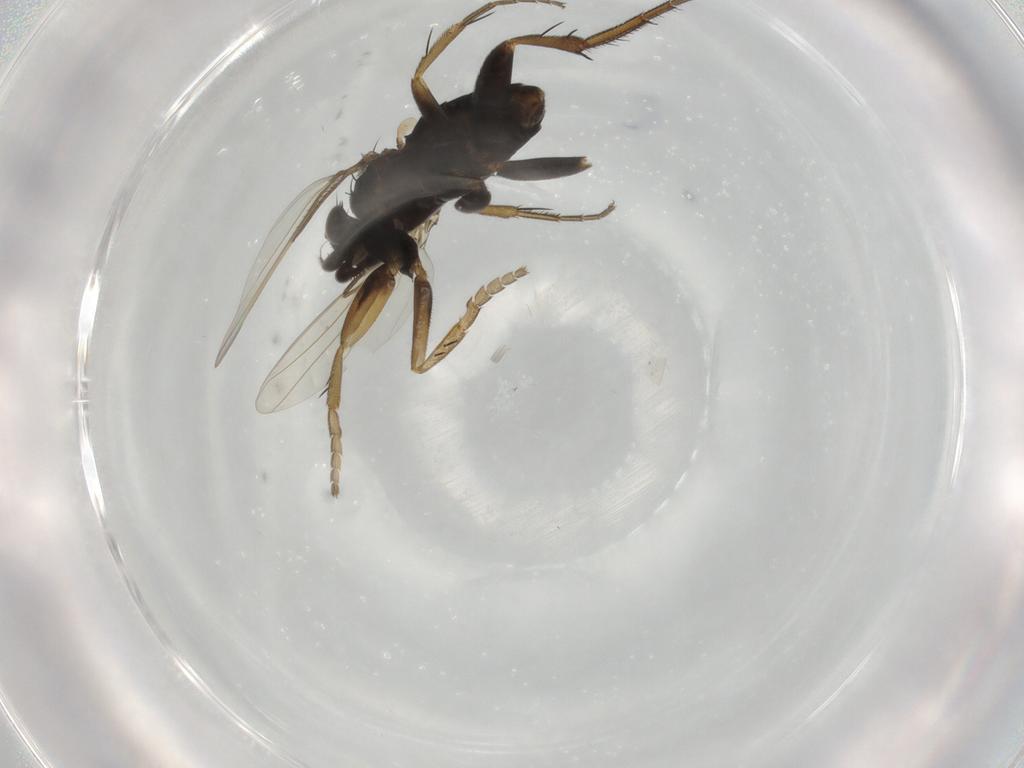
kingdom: Animalia
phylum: Arthropoda
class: Insecta
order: Diptera
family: Phoridae
